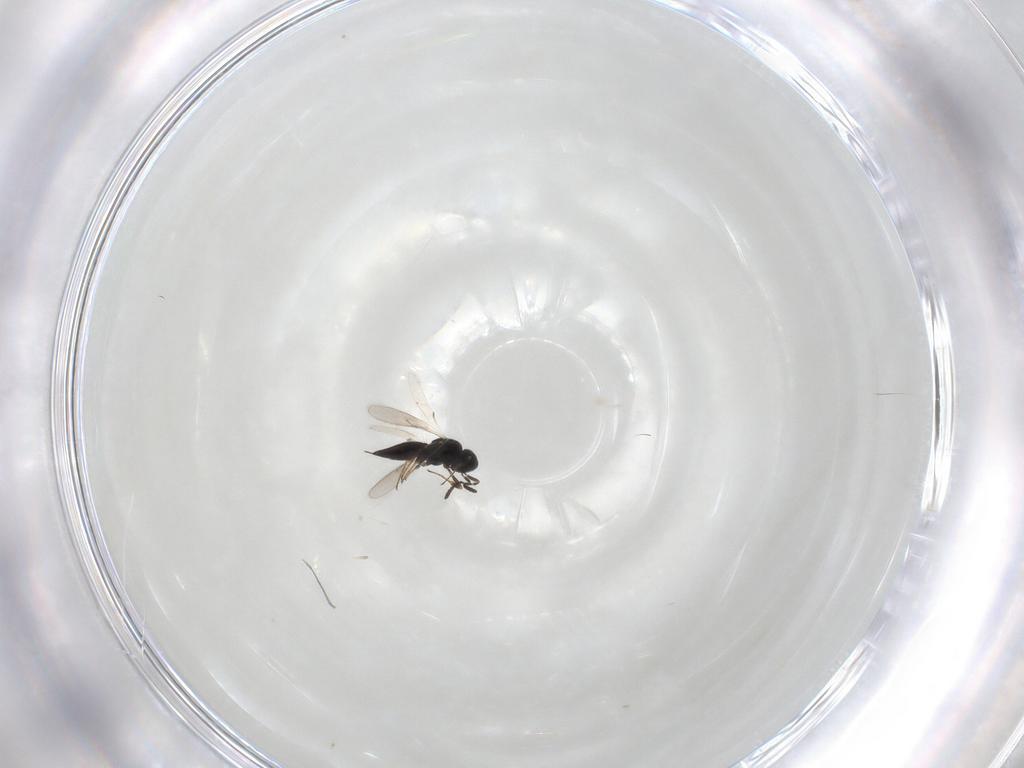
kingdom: Animalia
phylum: Arthropoda
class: Insecta
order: Hymenoptera
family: Scelionidae
